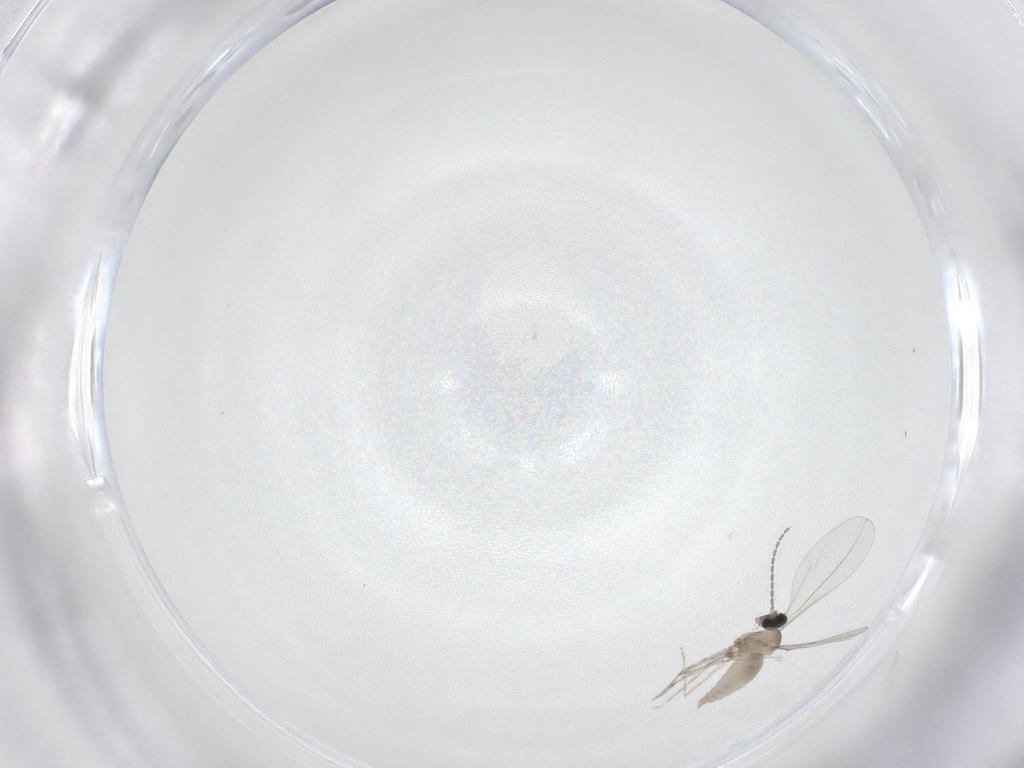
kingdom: Animalia
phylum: Arthropoda
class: Insecta
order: Diptera
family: Cecidomyiidae
